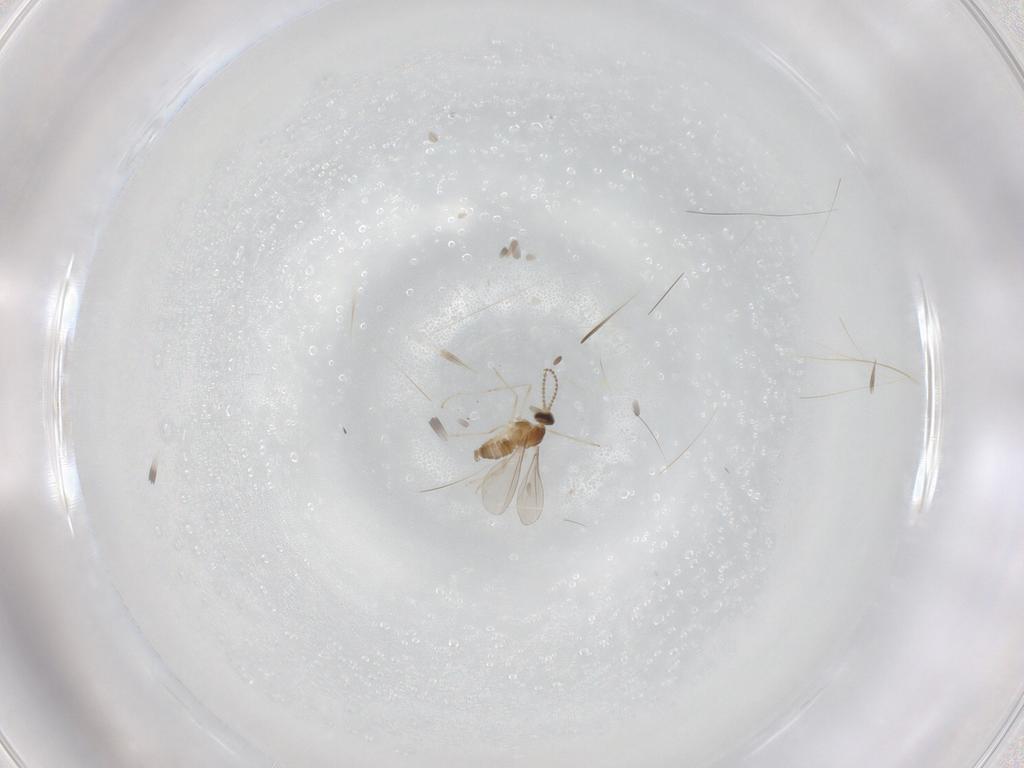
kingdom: Animalia
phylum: Arthropoda
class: Insecta
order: Diptera
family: Cecidomyiidae
